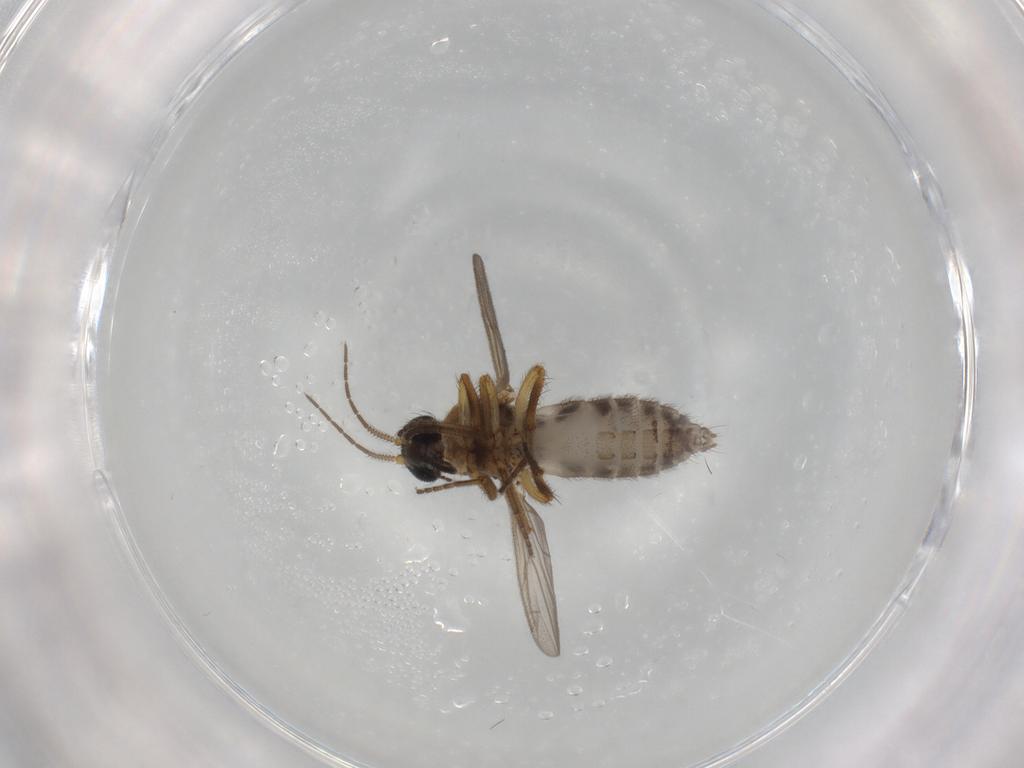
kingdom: Animalia
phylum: Arthropoda
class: Insecta
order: Diptera
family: Ceratopogonidae
